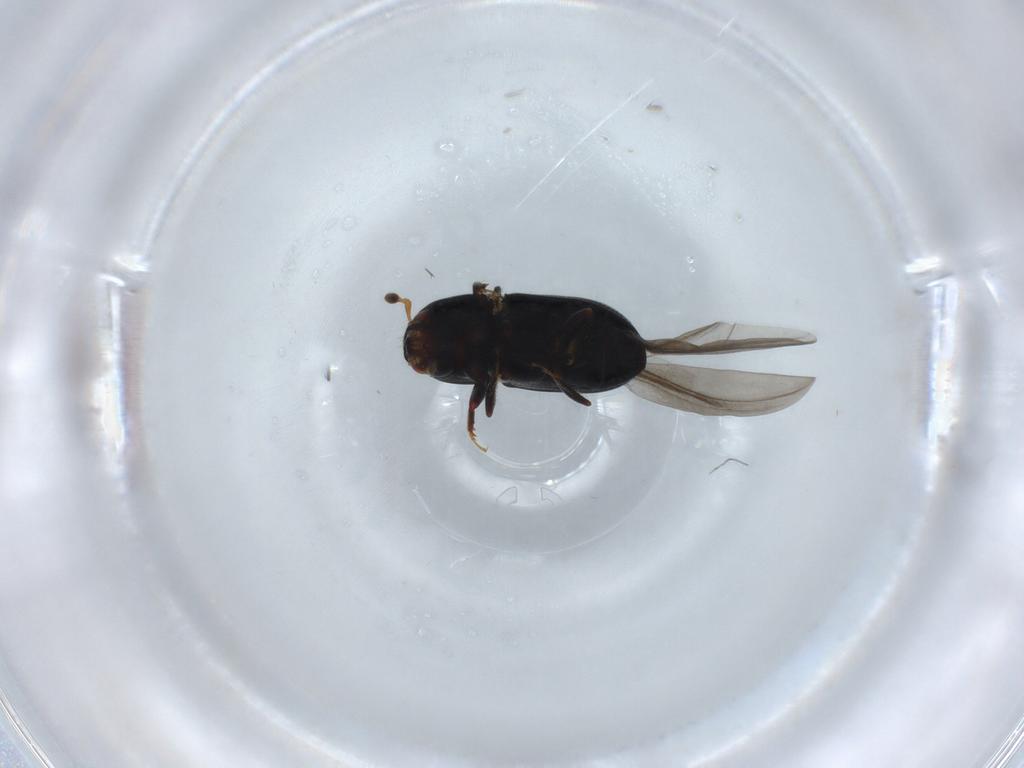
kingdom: Animalia
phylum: Arthropoda
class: Insecta
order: Coleoptera
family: Curculionidae
